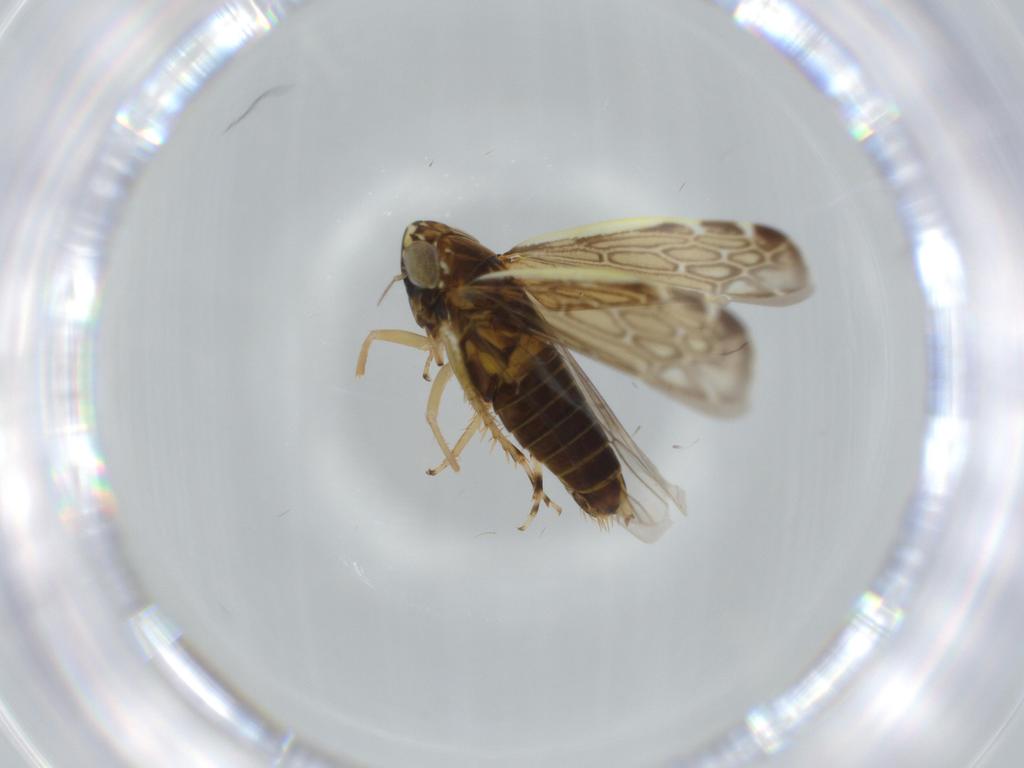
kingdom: Animalia
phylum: Arthropoda
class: Insecta
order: Hemiptera
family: Cicadellidae
